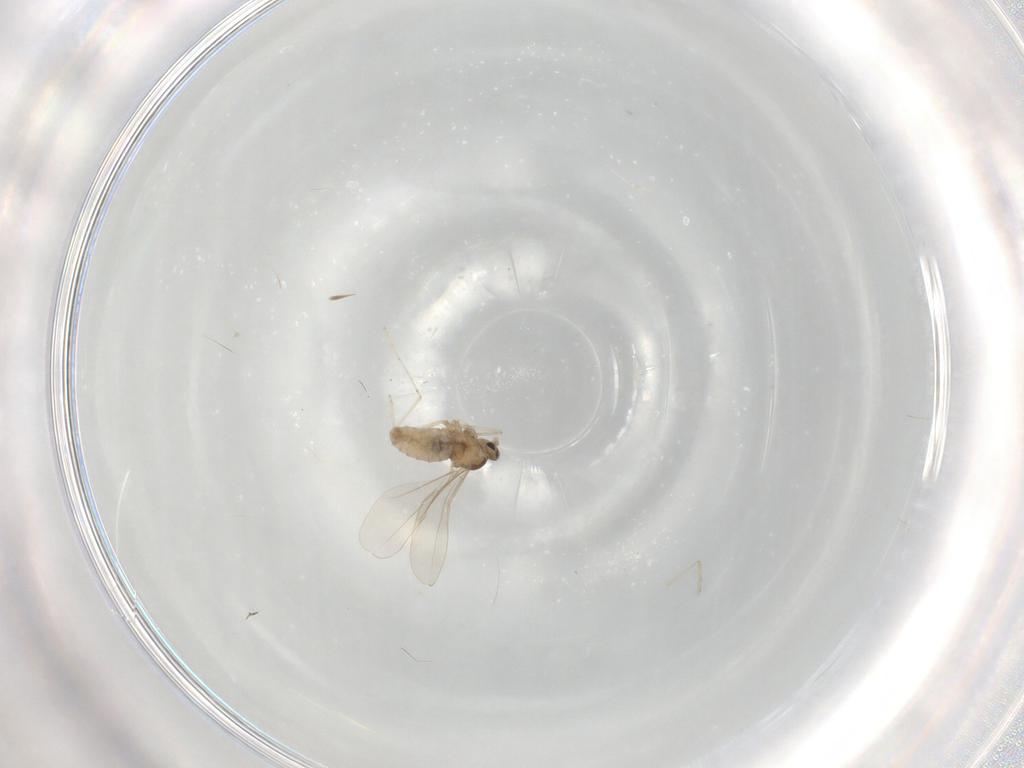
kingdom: Animalia
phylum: Arthropoda
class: Insecta
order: Diptera
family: Cecidomyiidae
